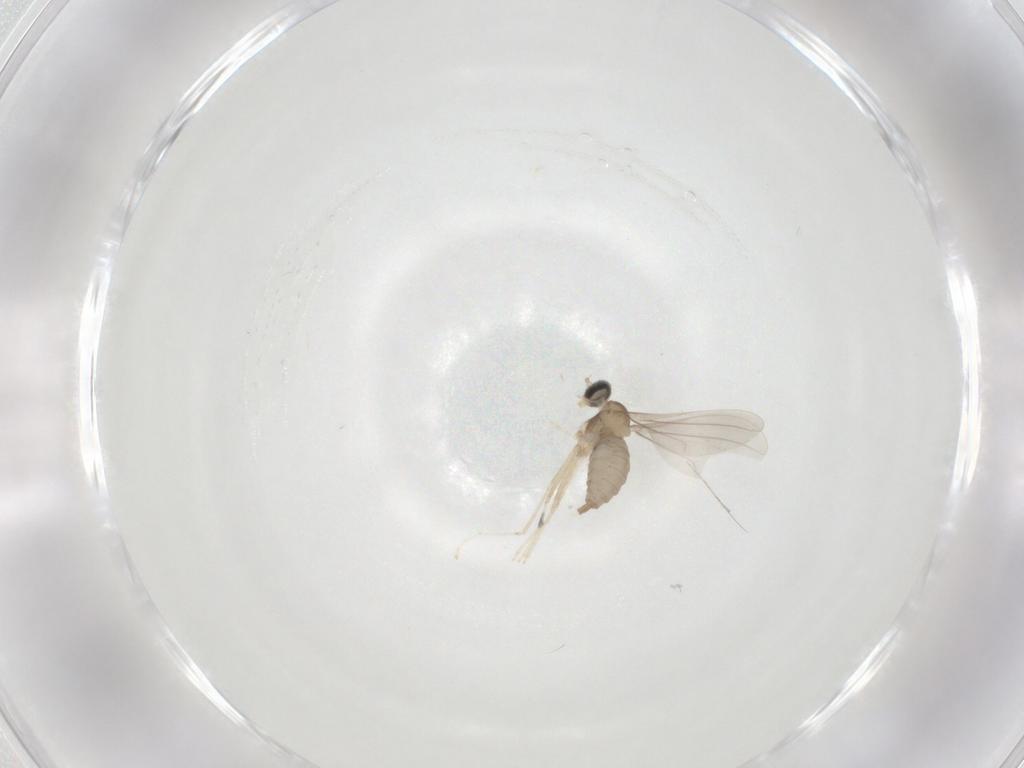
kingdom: Animalia
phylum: Arthropoda
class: Insecta
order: Diptera
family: Cecidomyiidae
